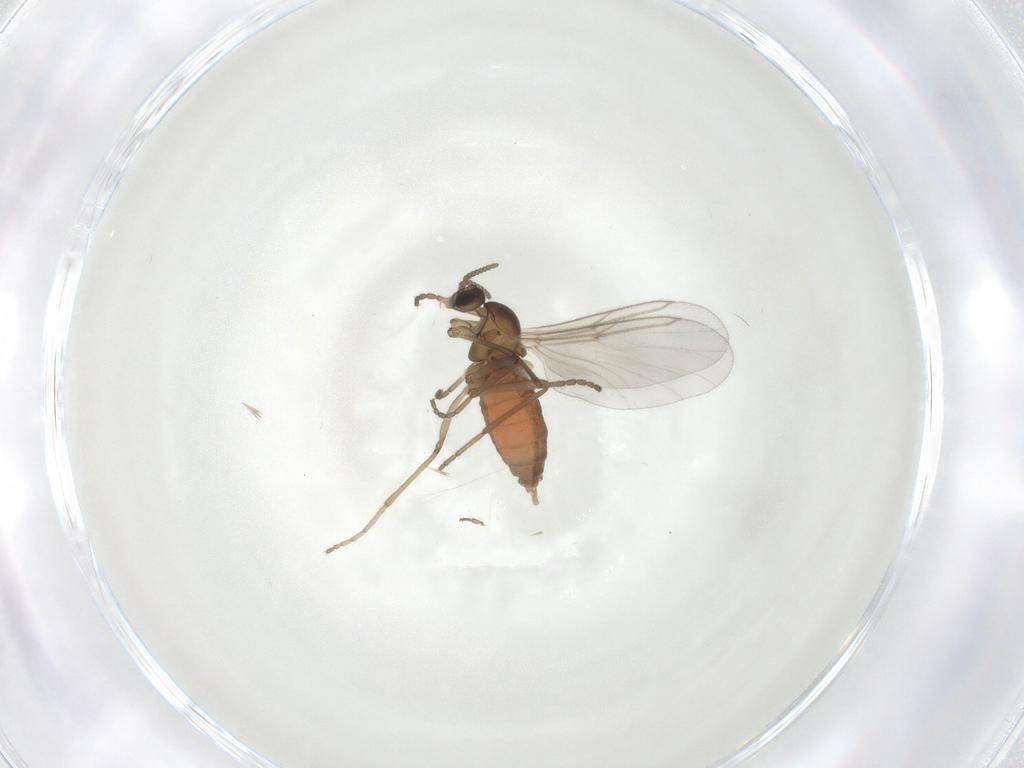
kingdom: Animalia
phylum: Arthropoda
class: Insecta
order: Diptera
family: Cecidomyiidae
